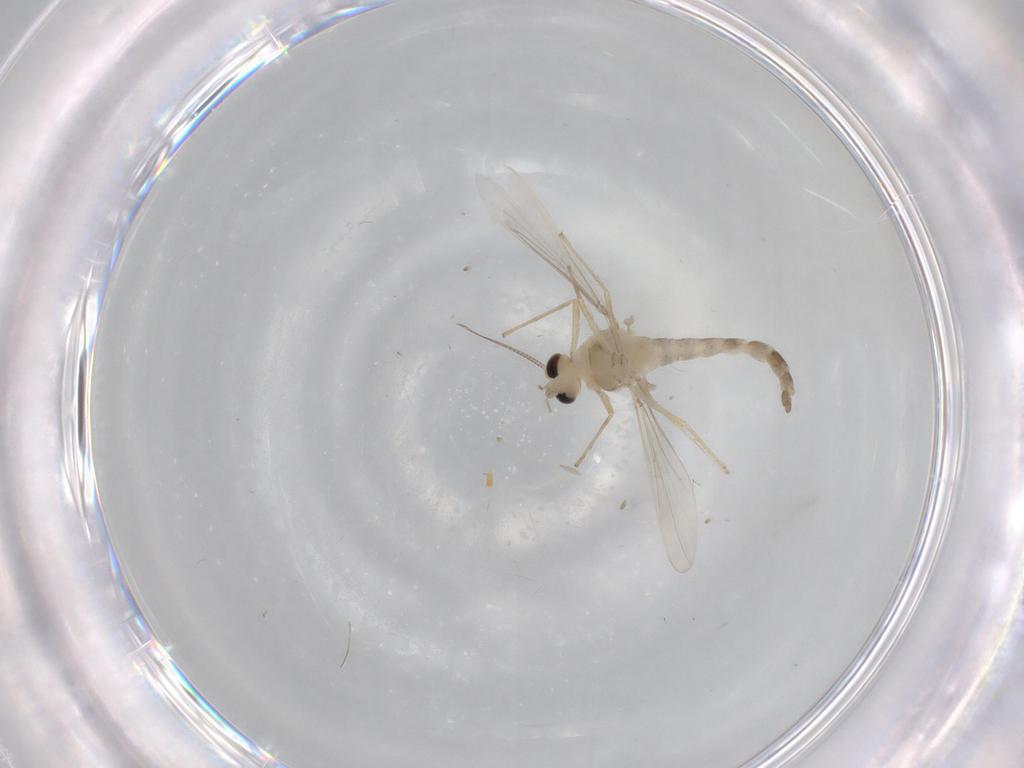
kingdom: Animalia
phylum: Arthropoda
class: Insecta
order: Diptera
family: Chironomidae
